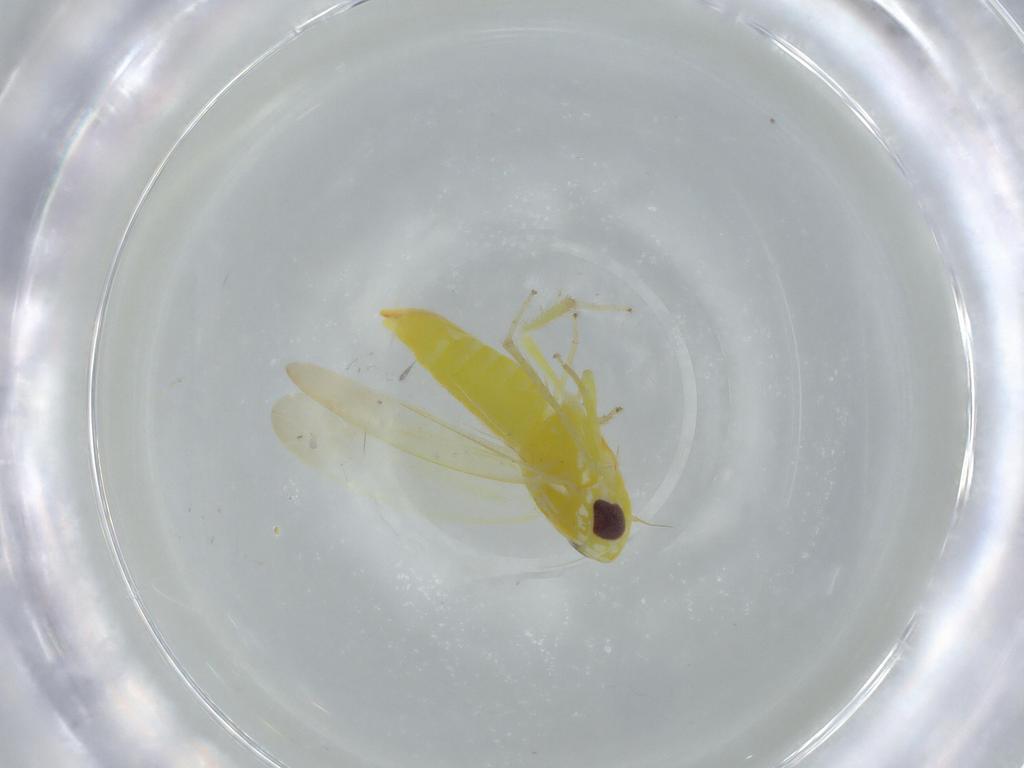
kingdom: Animalia
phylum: Arthropoda
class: Insecta
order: Hemiptera
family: Cicadellidae
